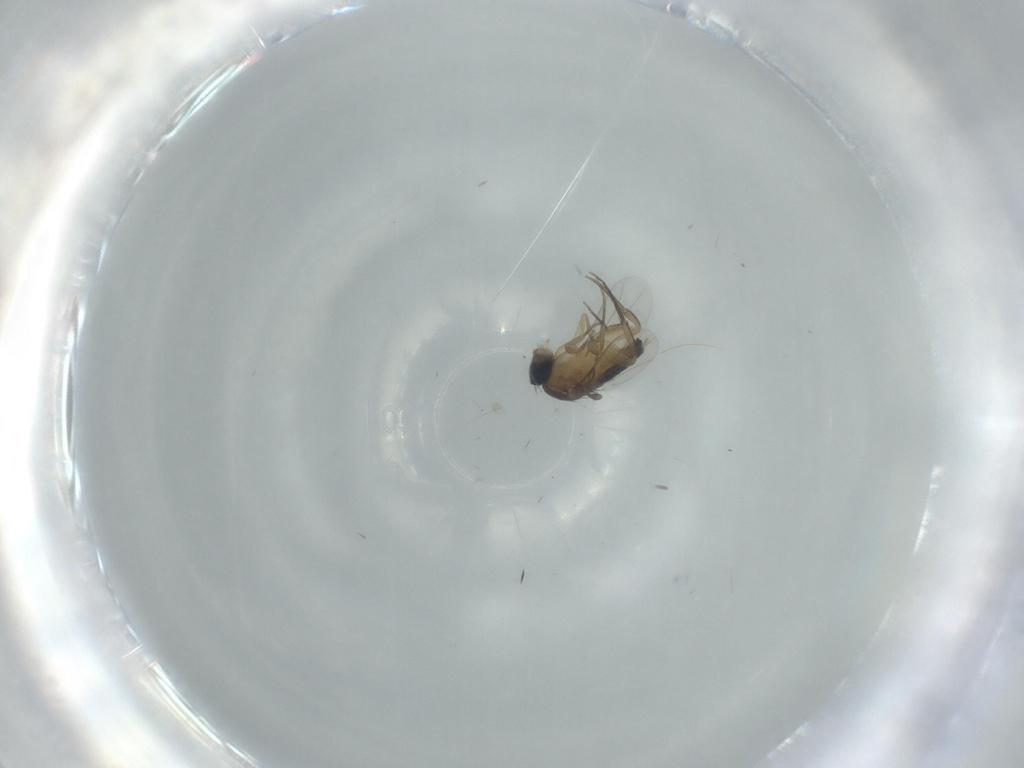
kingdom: Animalia
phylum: Arthropoda
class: Insecta
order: Diptera
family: Phoridae
